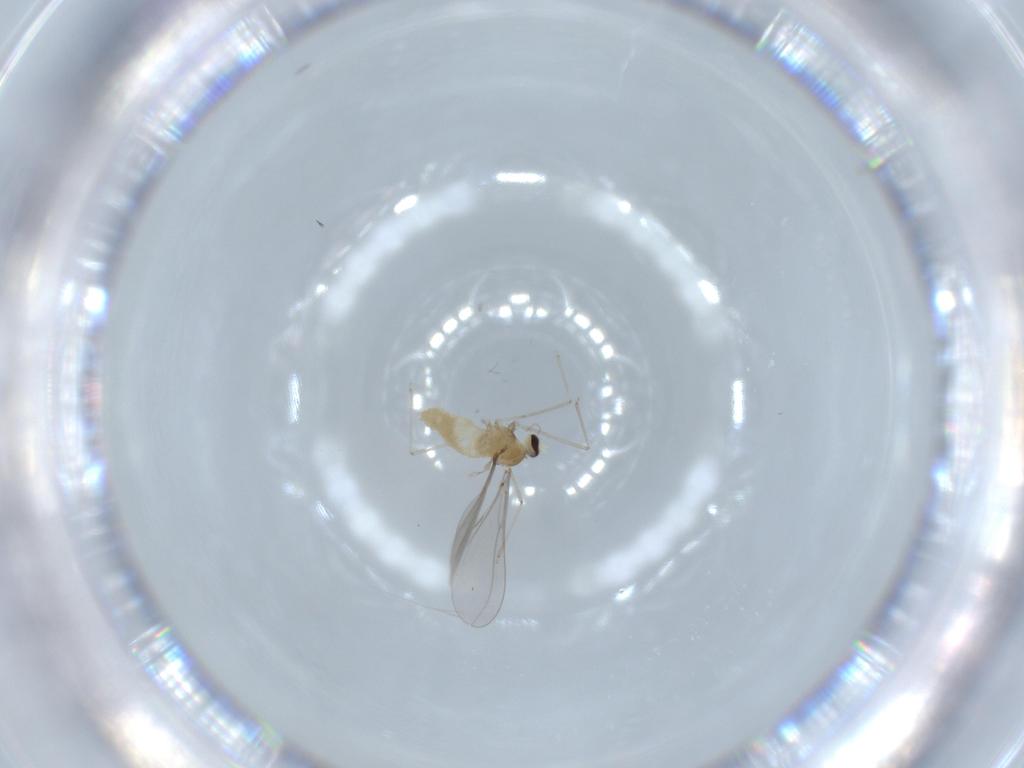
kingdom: Animalia
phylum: Arthropoda
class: Insecta
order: Diptera
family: Cecidomyiidae
